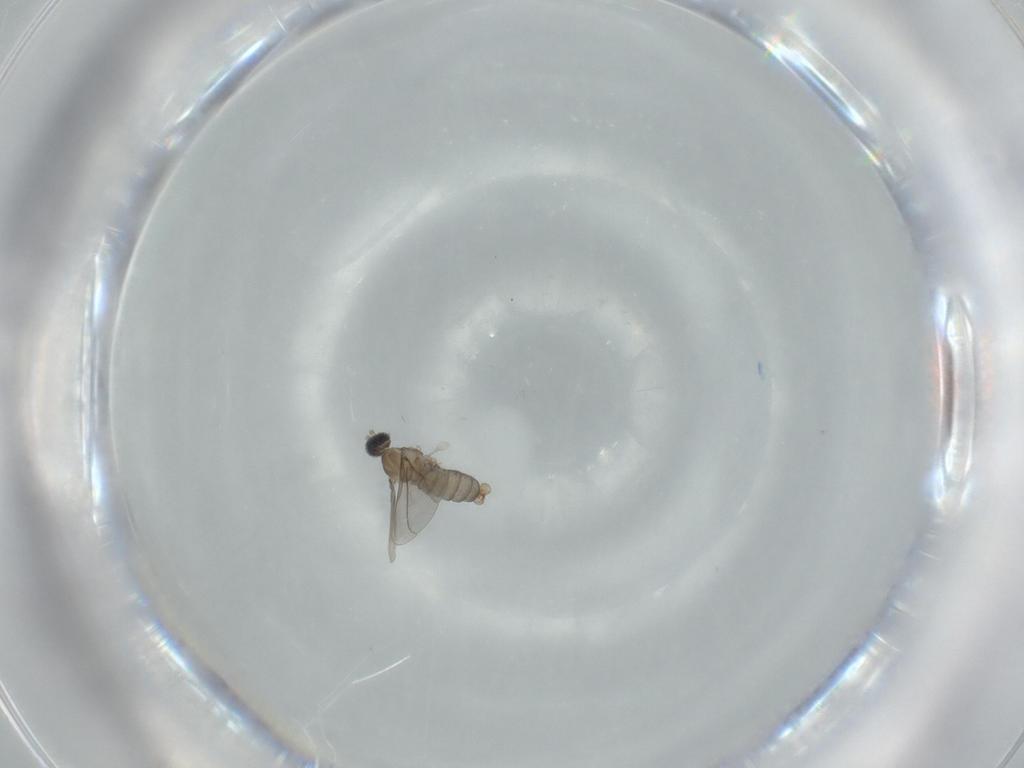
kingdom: Animalia
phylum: Arthropoda
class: Insecta
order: Diptera
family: Cecidomyiidae
